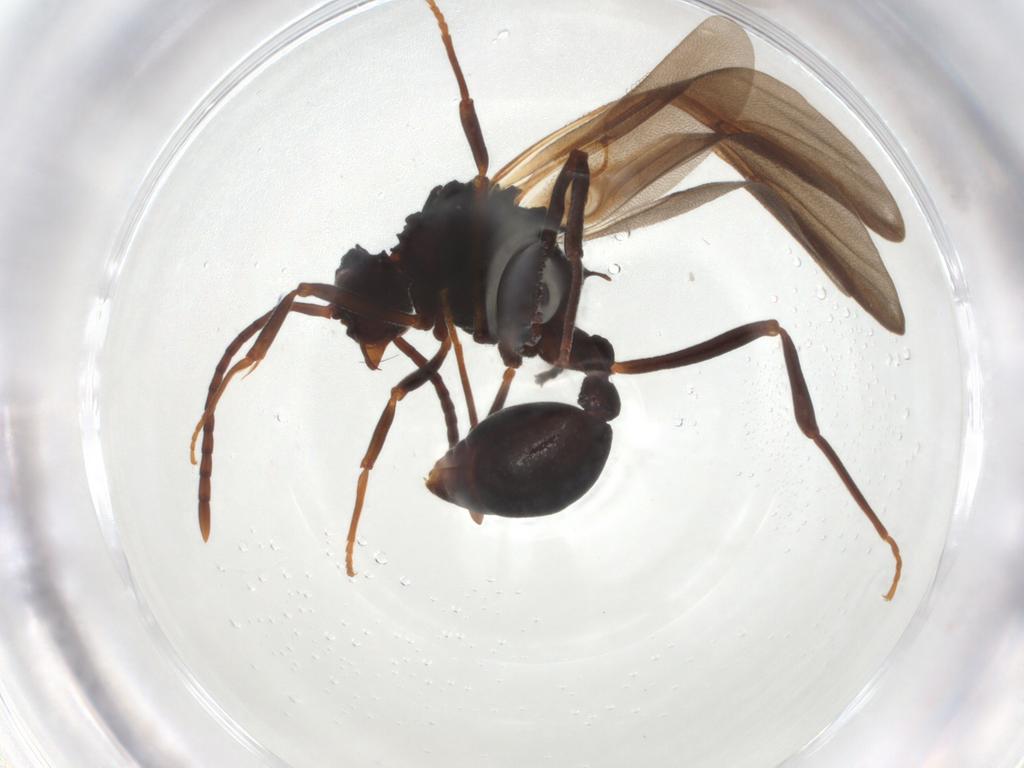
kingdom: Animalia
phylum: Arthropoda
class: Insecta
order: Hymenoptera
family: Formicidae
